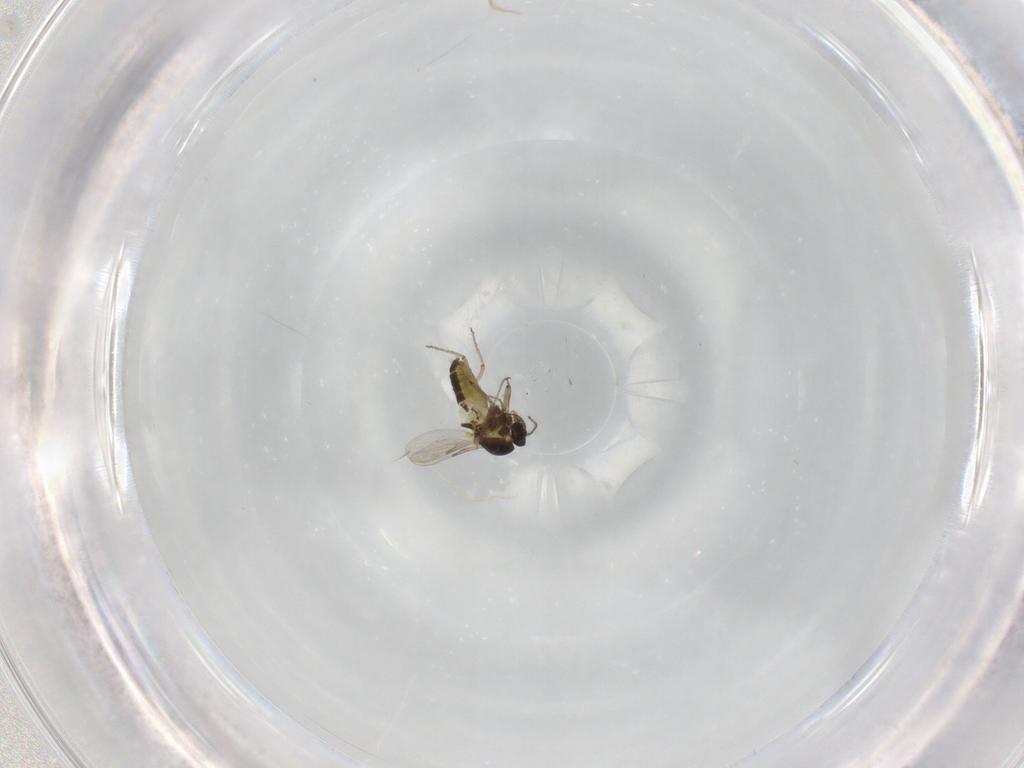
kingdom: Animalia
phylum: Arthropoda
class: Insecta
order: Diptera
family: Ceratopogonidae
